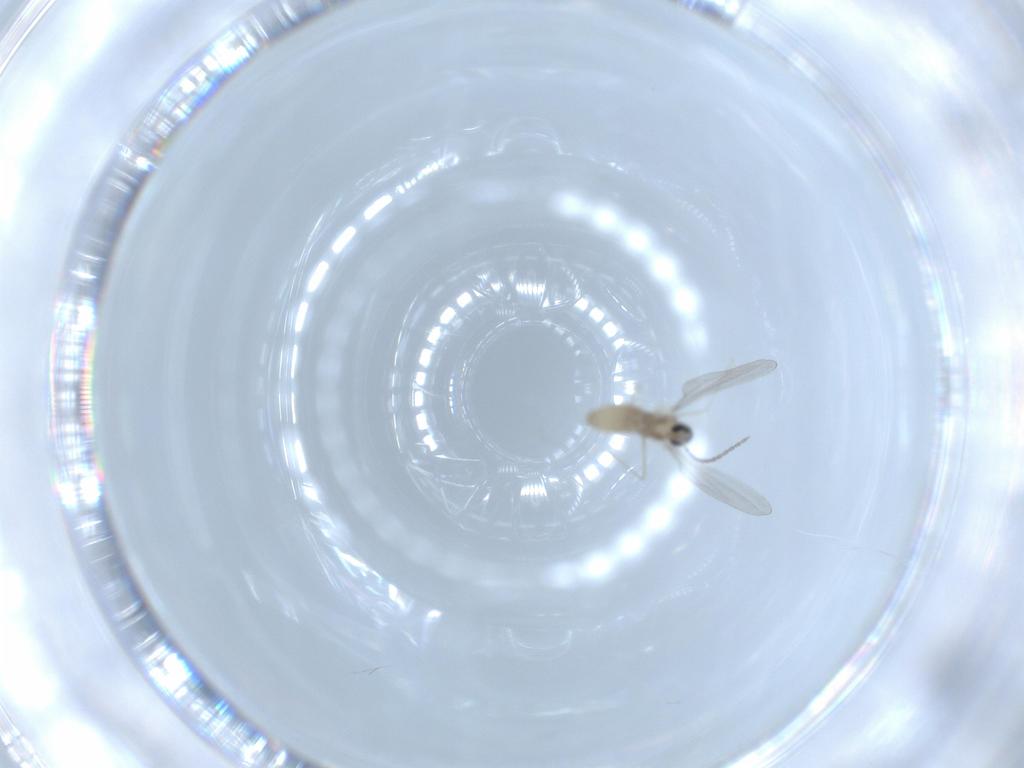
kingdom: Animalia
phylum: Arthropoda
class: Insecta
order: Diptera
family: Cecidomyiidae
